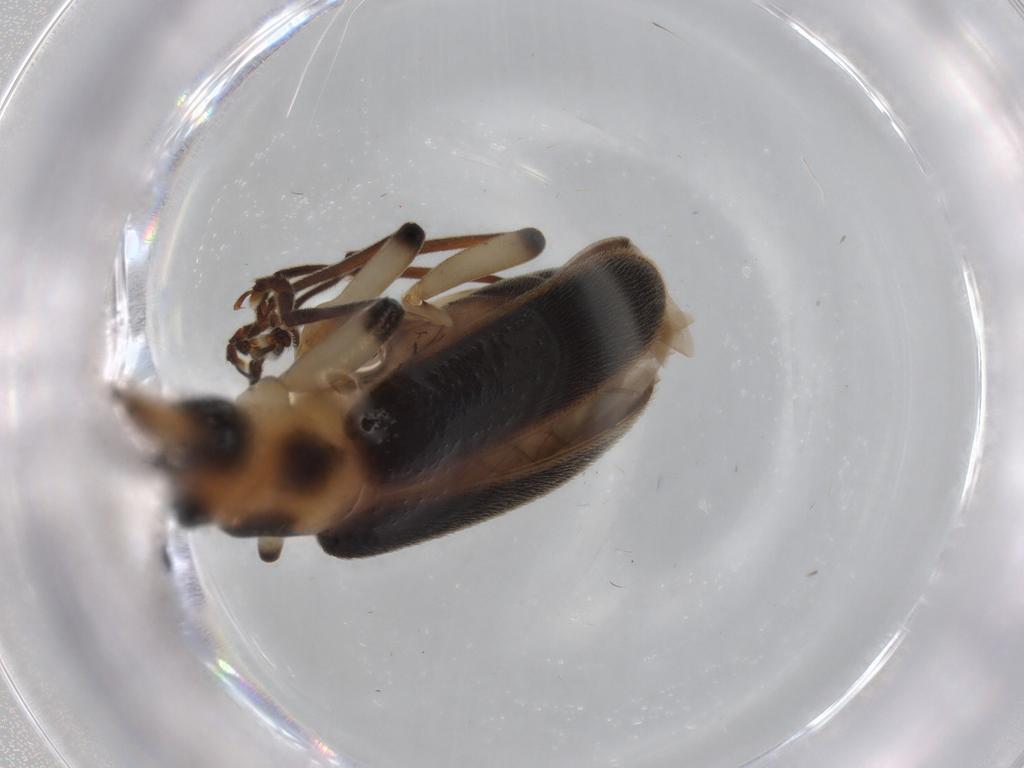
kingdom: Animalia
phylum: Arthropoda
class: Insecta
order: Coleoptera
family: Oedemeridae
